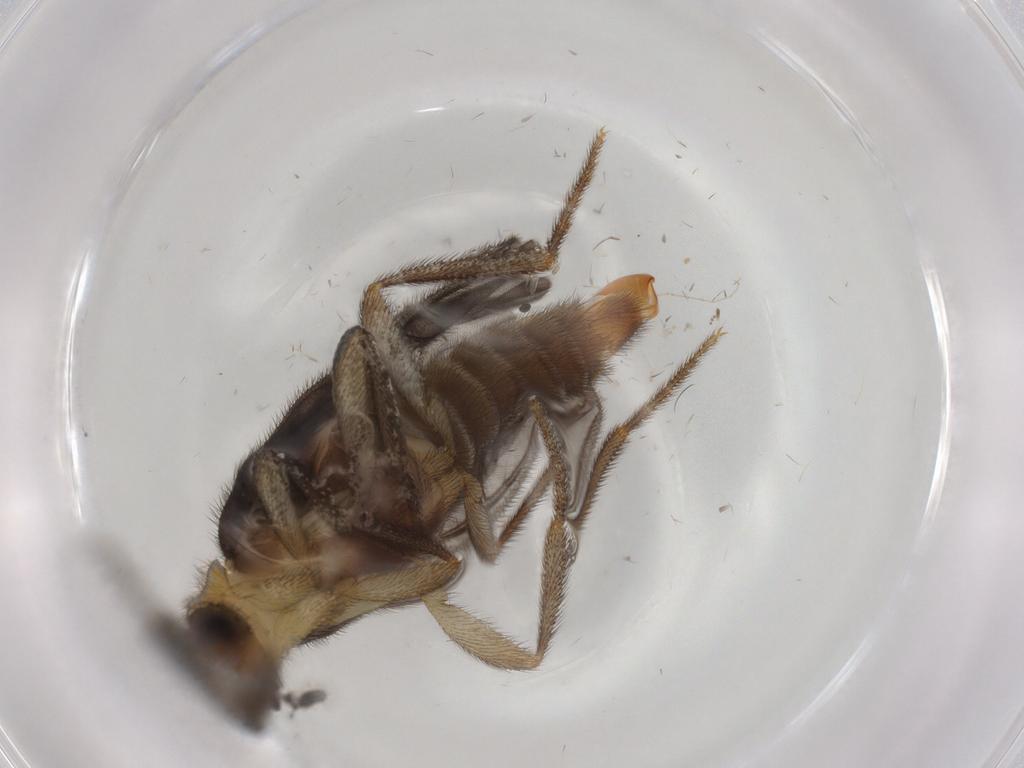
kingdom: Animalia
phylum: Arthropoda
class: Insecta
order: Coleoptera
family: Phengodidae
